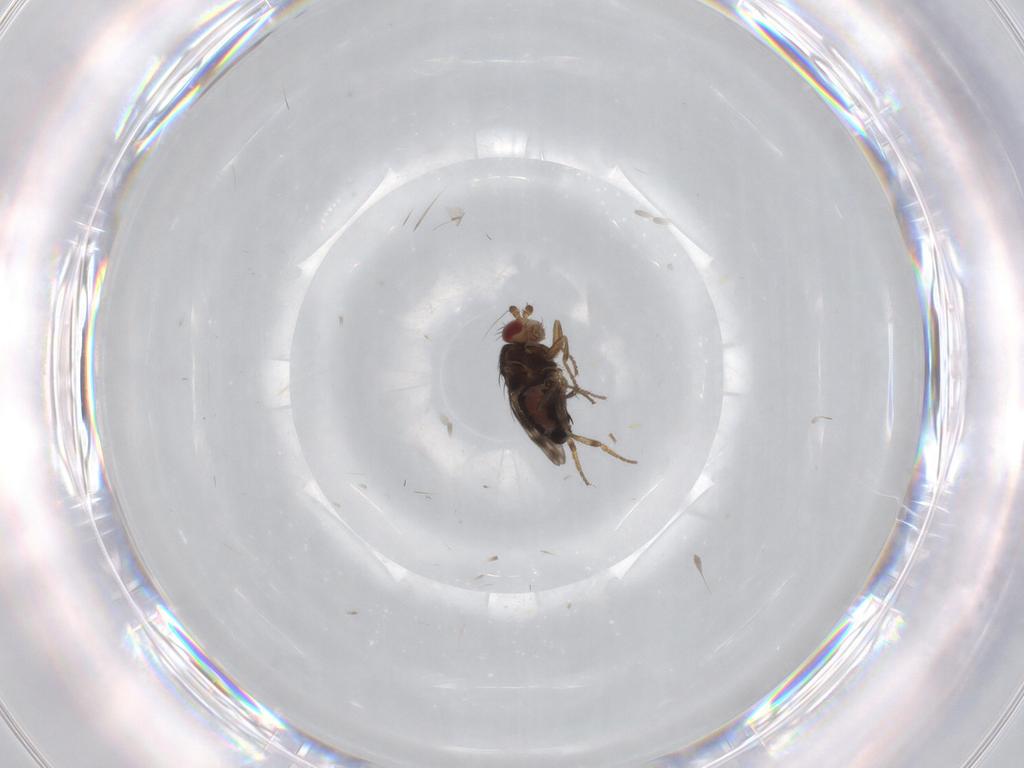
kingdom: Animalia
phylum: Arthropoda
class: Insecta
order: Diptera
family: Sphaeroceridae
